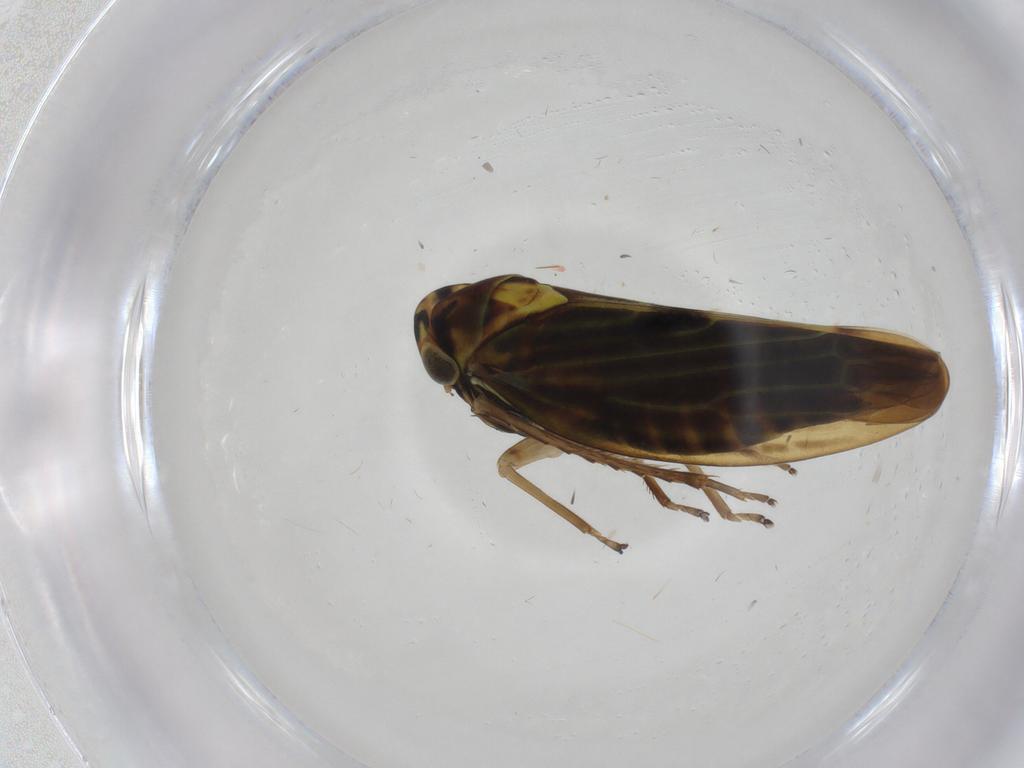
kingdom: Animalia
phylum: Arthropoda
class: Insecta
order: Hemiptera
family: Cicadellidae
